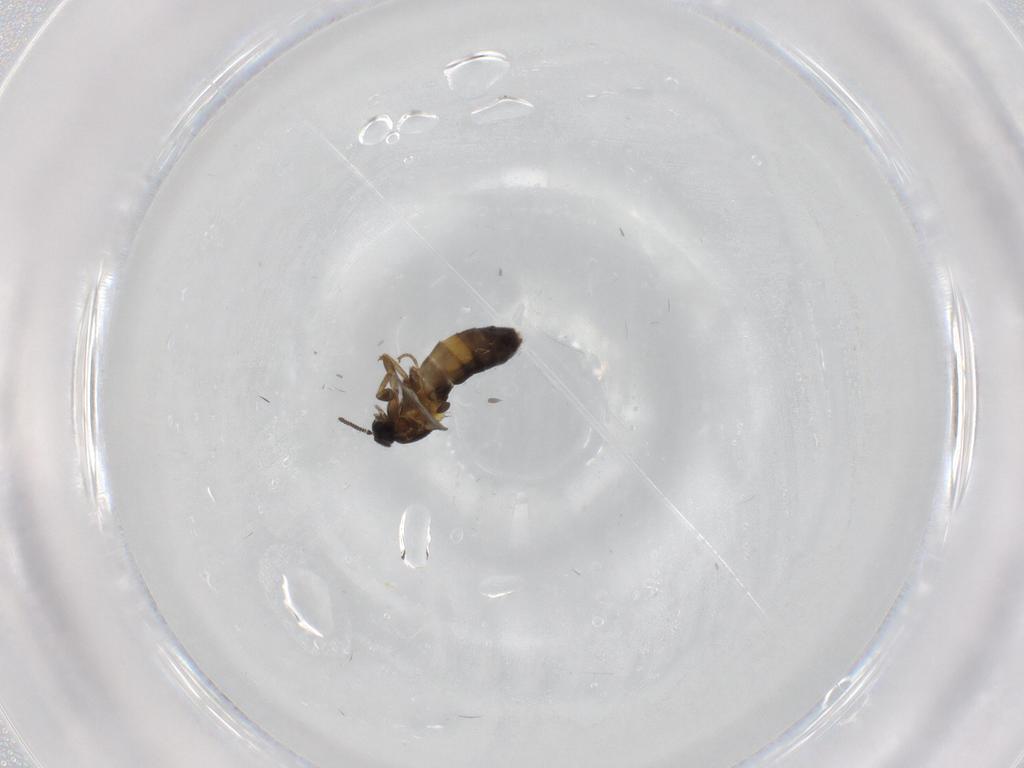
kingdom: Animalia
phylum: Arthropoda
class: Insecta
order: Diptera
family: Scatopsidae
